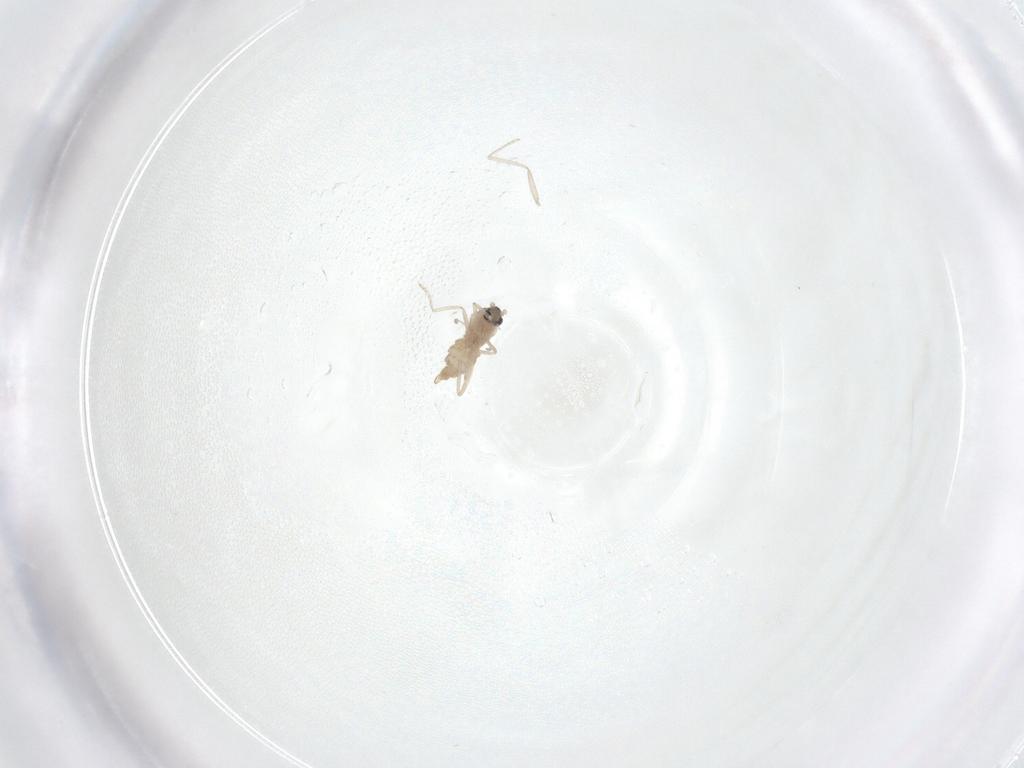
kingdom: Animalia
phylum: Arthropoda
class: Insecta
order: Diptera
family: Cecidomyiidae
